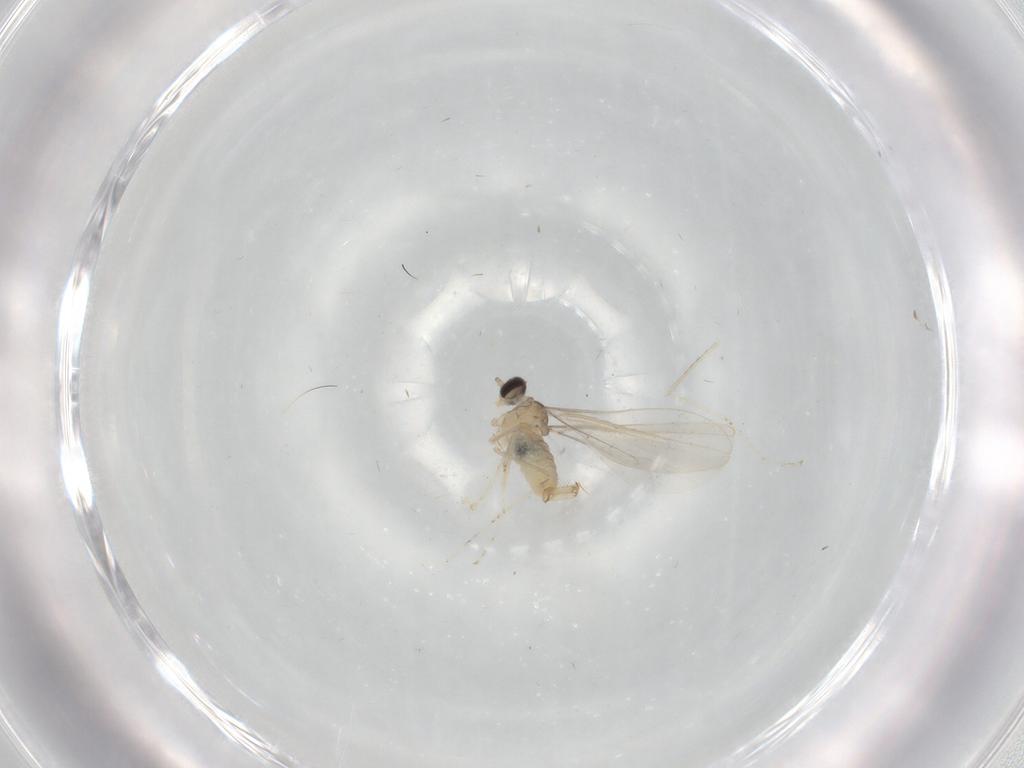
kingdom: Animalia
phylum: Arthropoda
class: Insecta
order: Diptera
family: Cecidomyiidae
